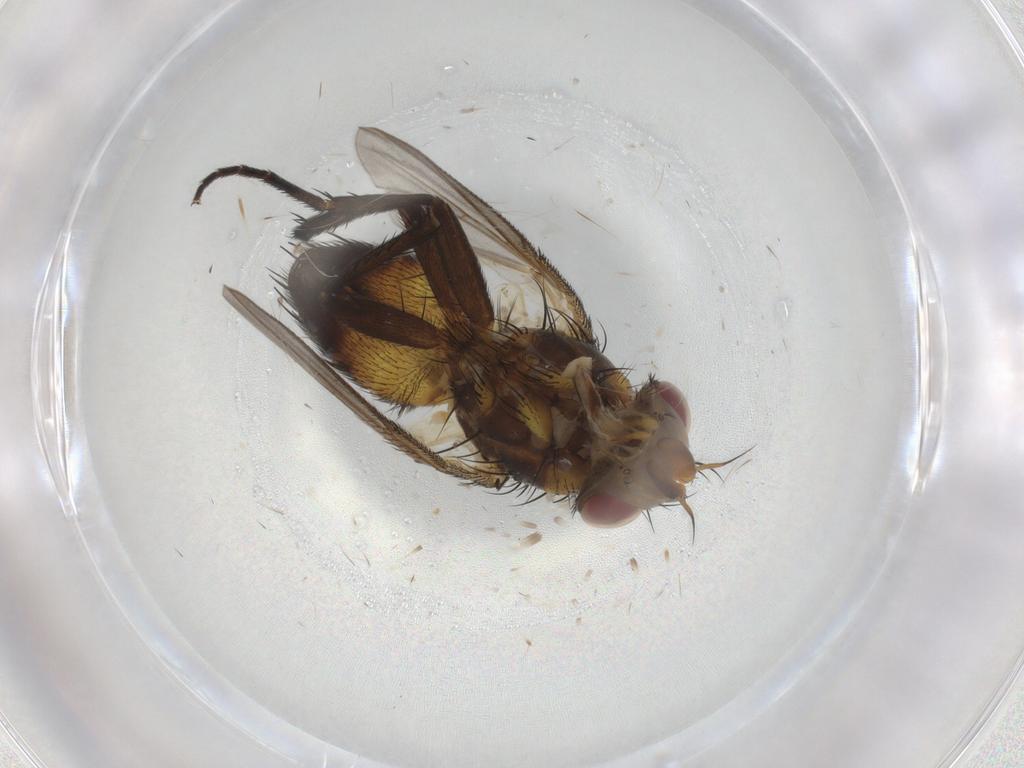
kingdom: Animalia
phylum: Arthropoda
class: Insecta
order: Diptera
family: Tachinidae
